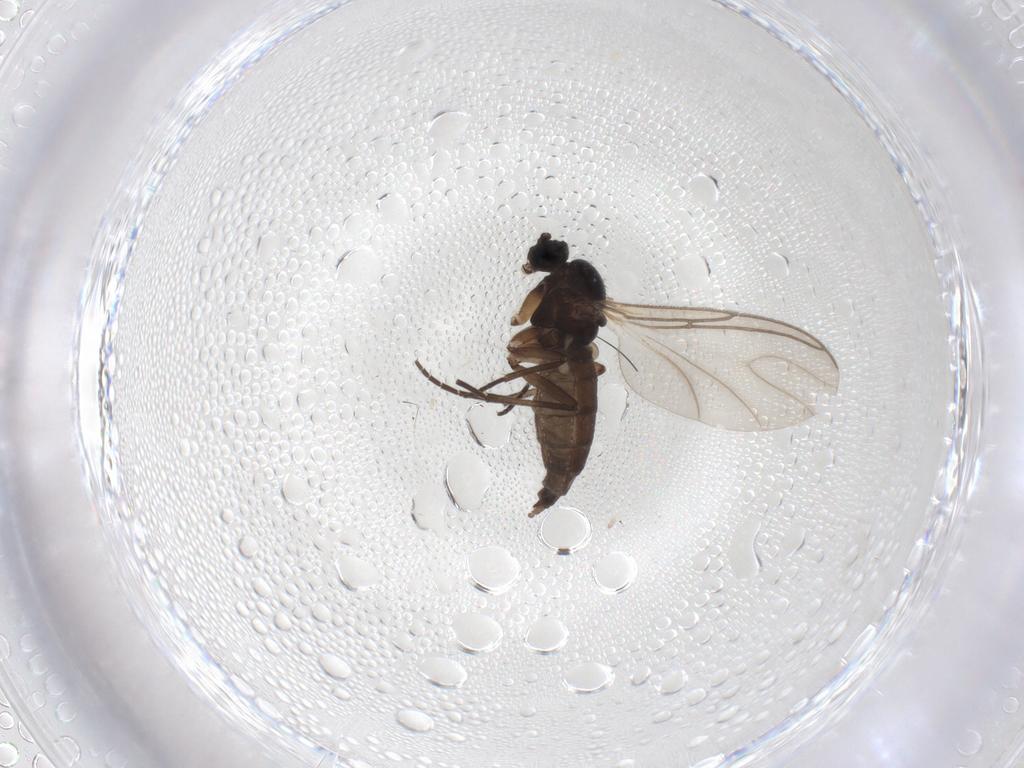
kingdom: Animalia
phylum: Arthropoda
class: Insecta
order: Diptera
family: Sciaridae
